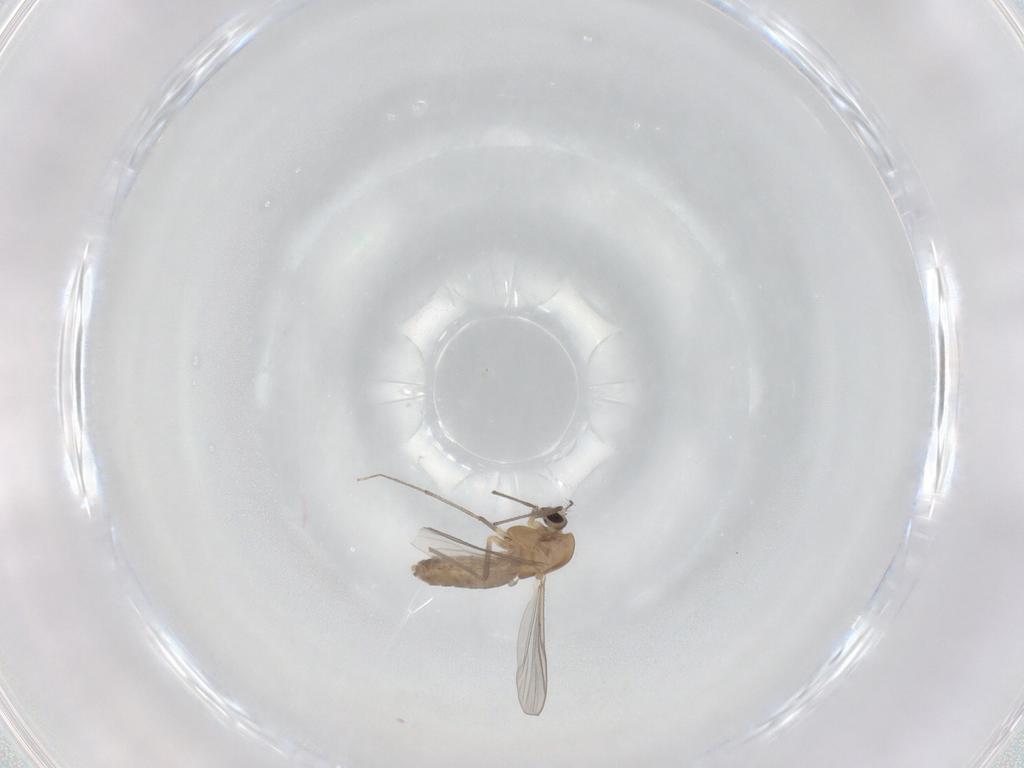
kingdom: Animalia
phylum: Arthropoda
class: Insecta
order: Diptera
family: Chironomidae
